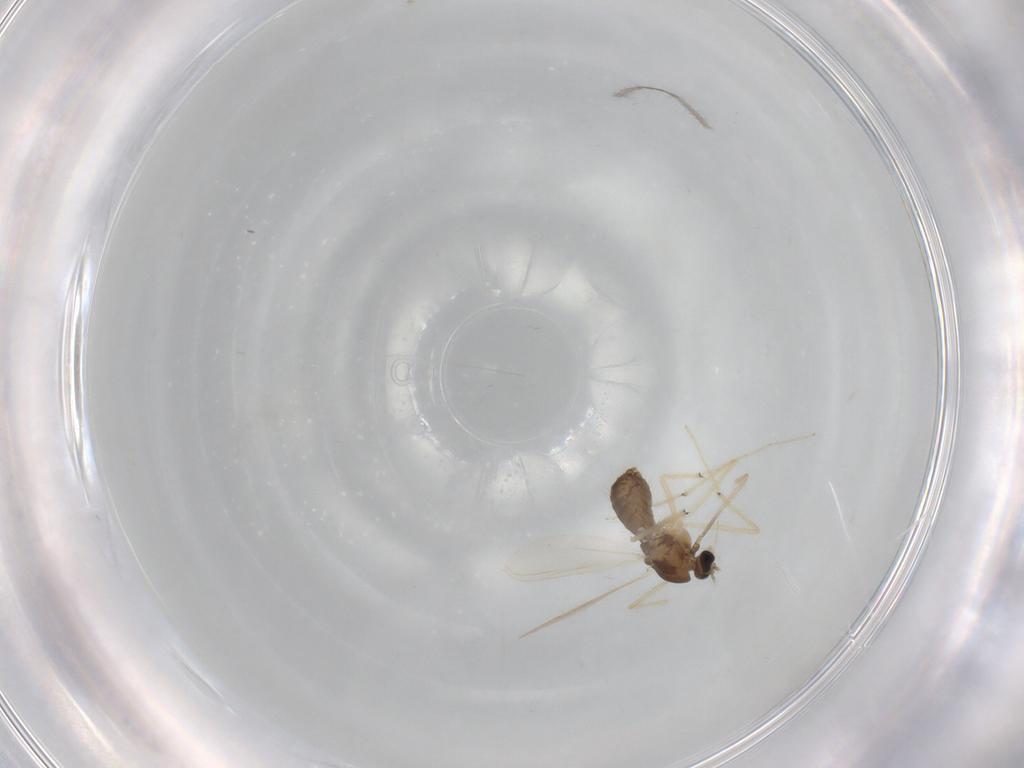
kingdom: Animalia
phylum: Arthropoda
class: Insecta
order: Diptera
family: Chironomidae
